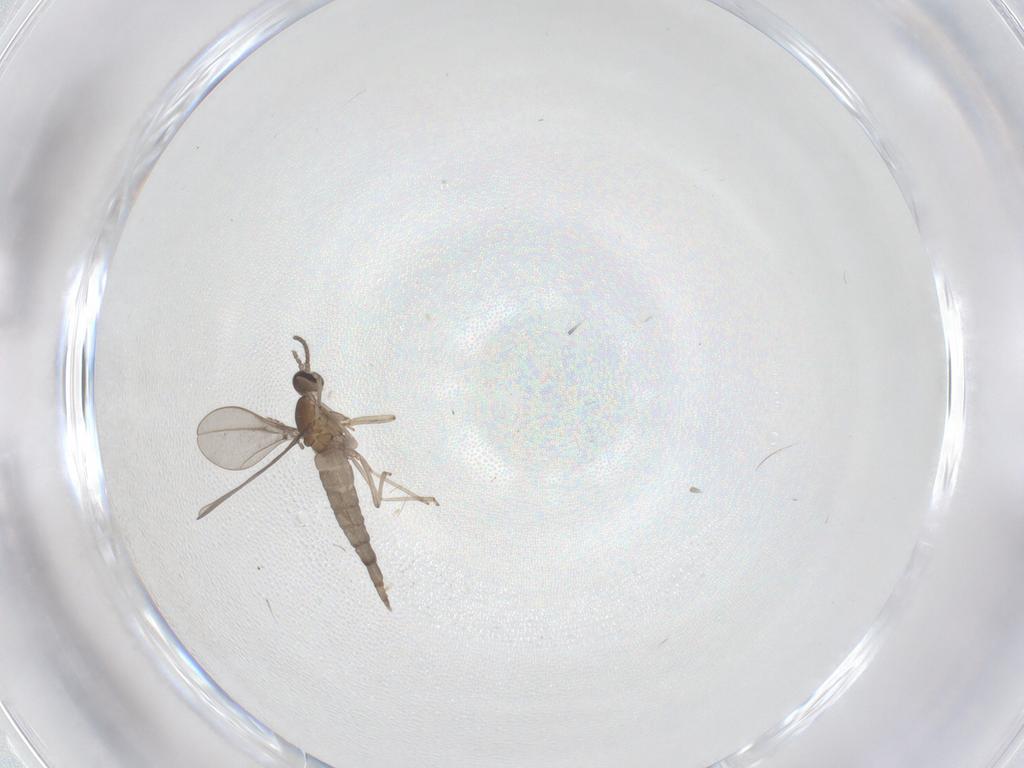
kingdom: Animalia
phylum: Arthropoda
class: Insecta
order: Diptera
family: Cecidomyiidae
